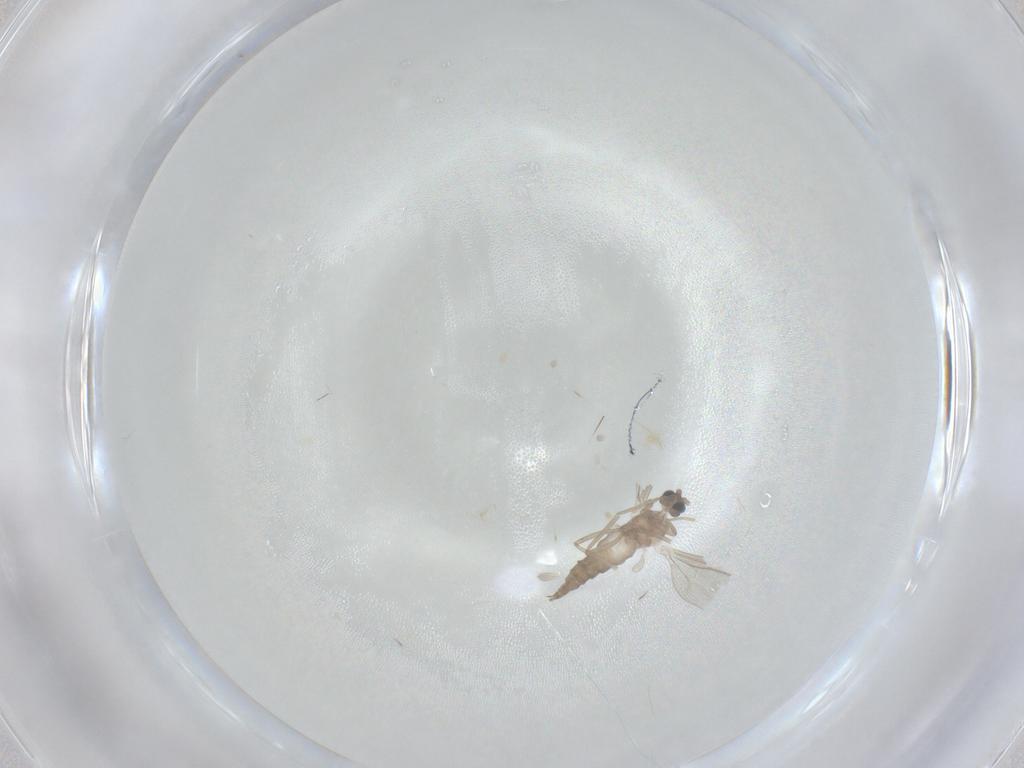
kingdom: Animalia
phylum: Arthropoda
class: Insecta
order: Diptera
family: Cecidomyiidae
